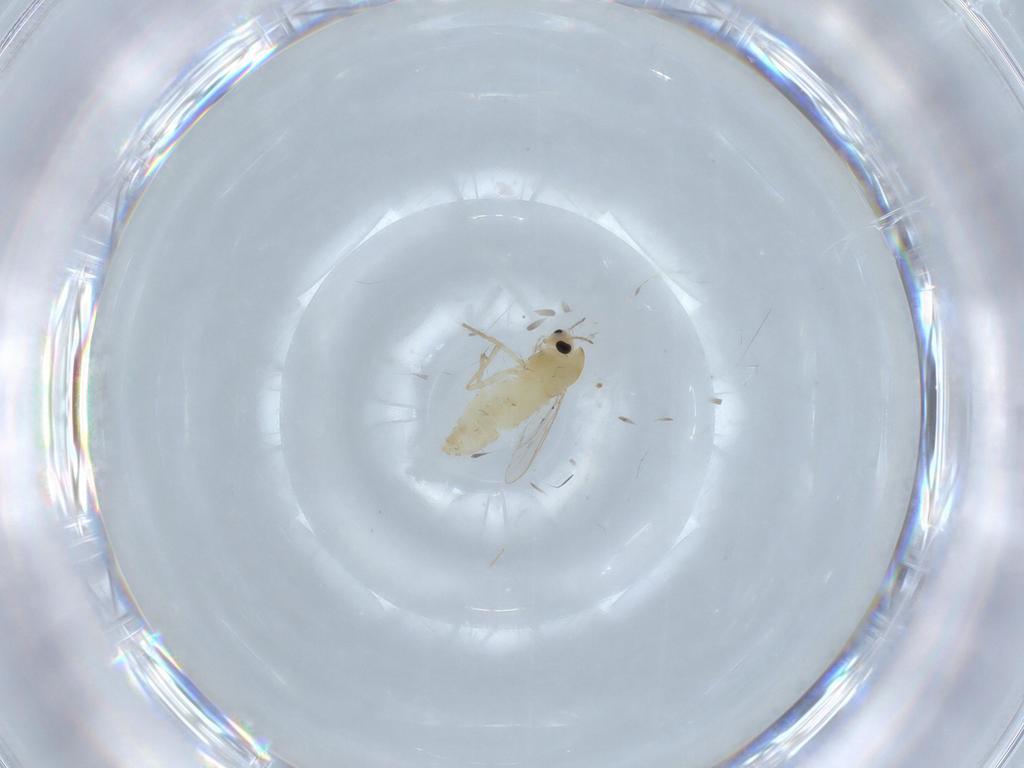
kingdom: Animalia
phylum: Arthropoda
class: Insecta
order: Diptera
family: Chironomidae
